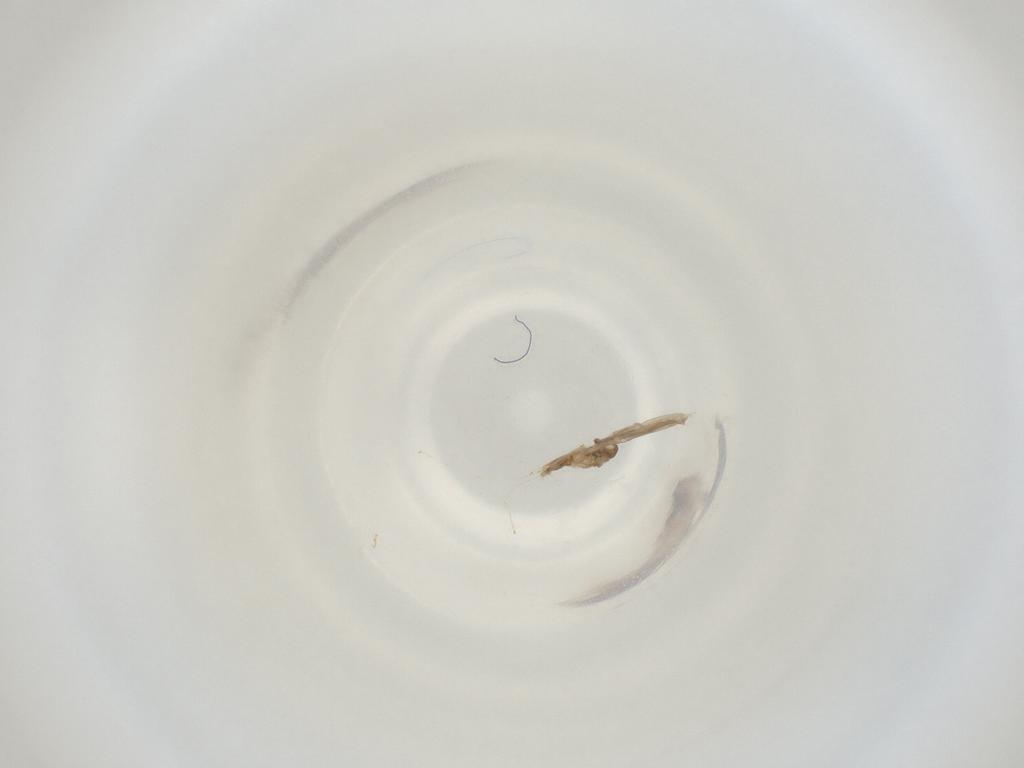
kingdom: Animalia
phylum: Arthropoda
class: Insecta
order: Diptera
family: Cecidomyiidae
